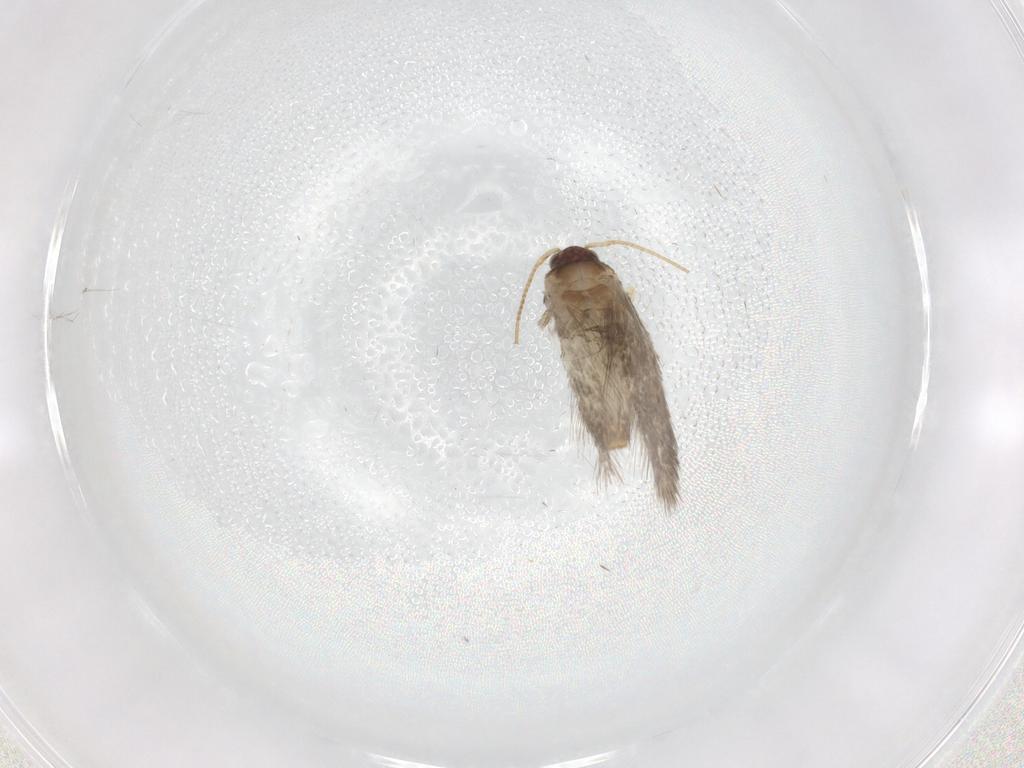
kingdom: Animalia
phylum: Arthropoda
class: Insecta
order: Lepidoptera
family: Nepticulidae
